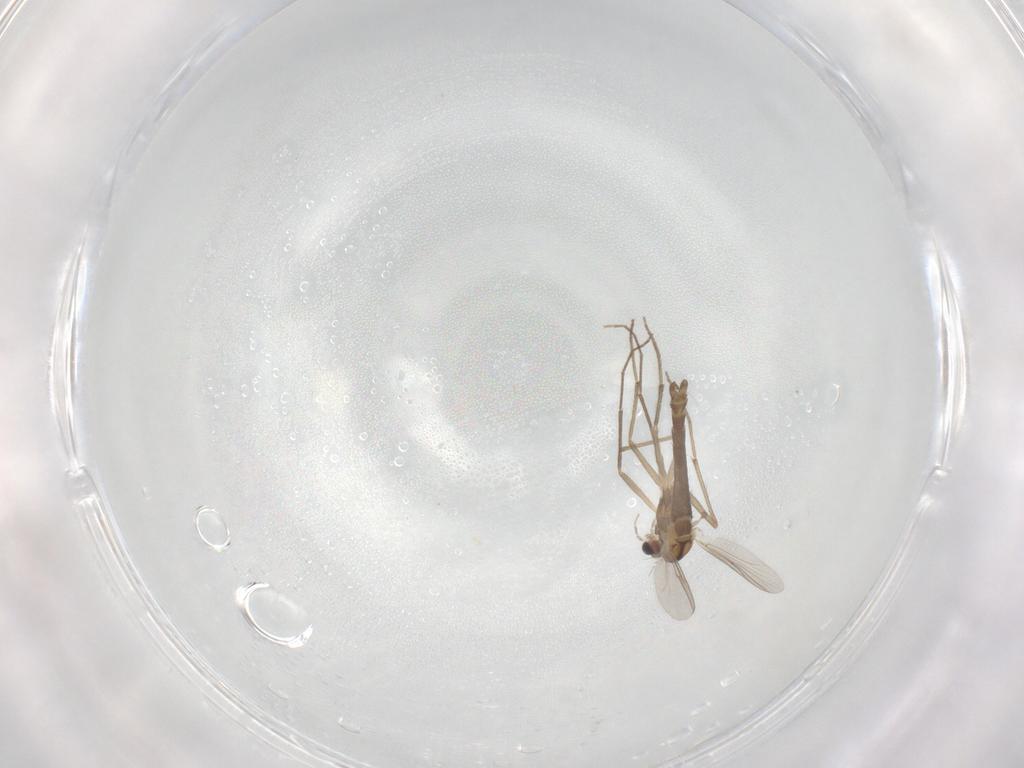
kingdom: Animalia
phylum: Arthropoda
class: Insecta
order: Diptera
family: Chironomidae
